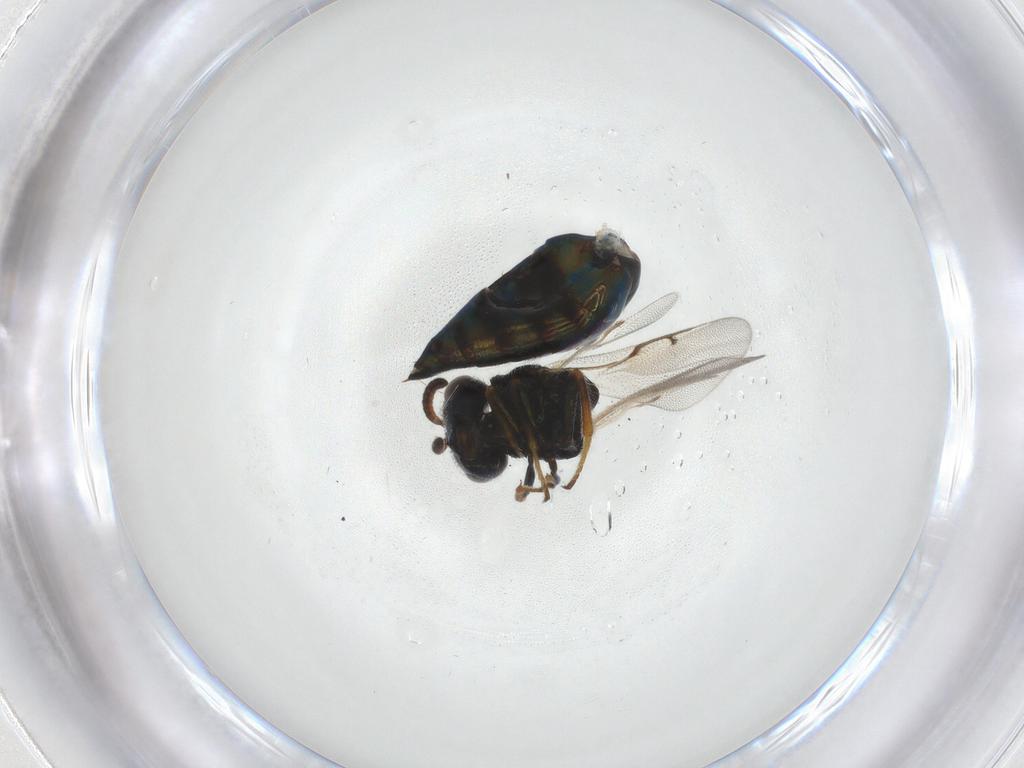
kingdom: Animalia
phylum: Arthropoda
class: Insecta
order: Hymenoptera
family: Pteromalidae
